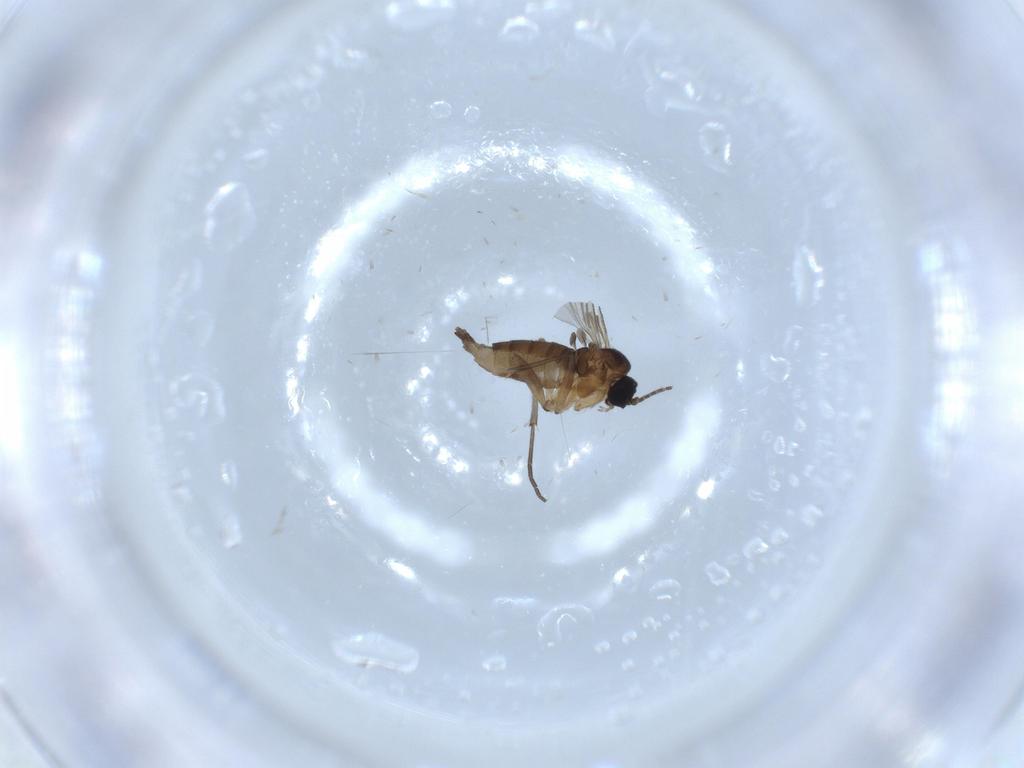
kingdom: Animalia
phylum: Arthropoda
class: Insecta
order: Diptera
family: Sciaridae
